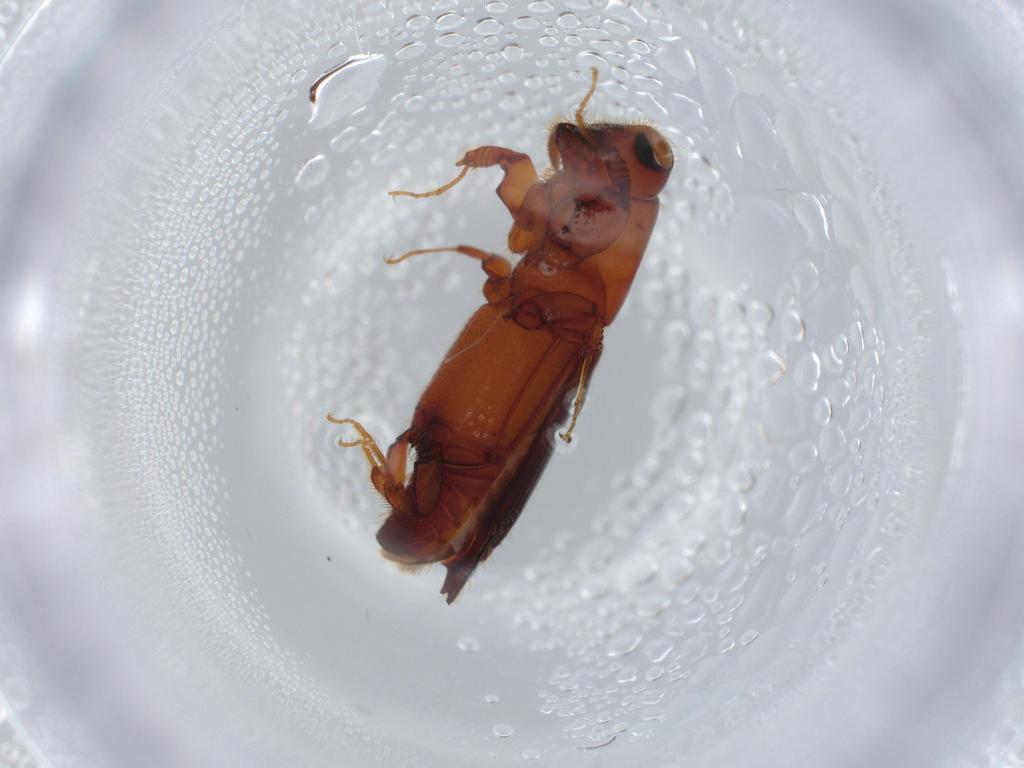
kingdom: Animalia
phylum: Arthropoda
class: Insecta
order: Coleoptera
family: Curculionidae
